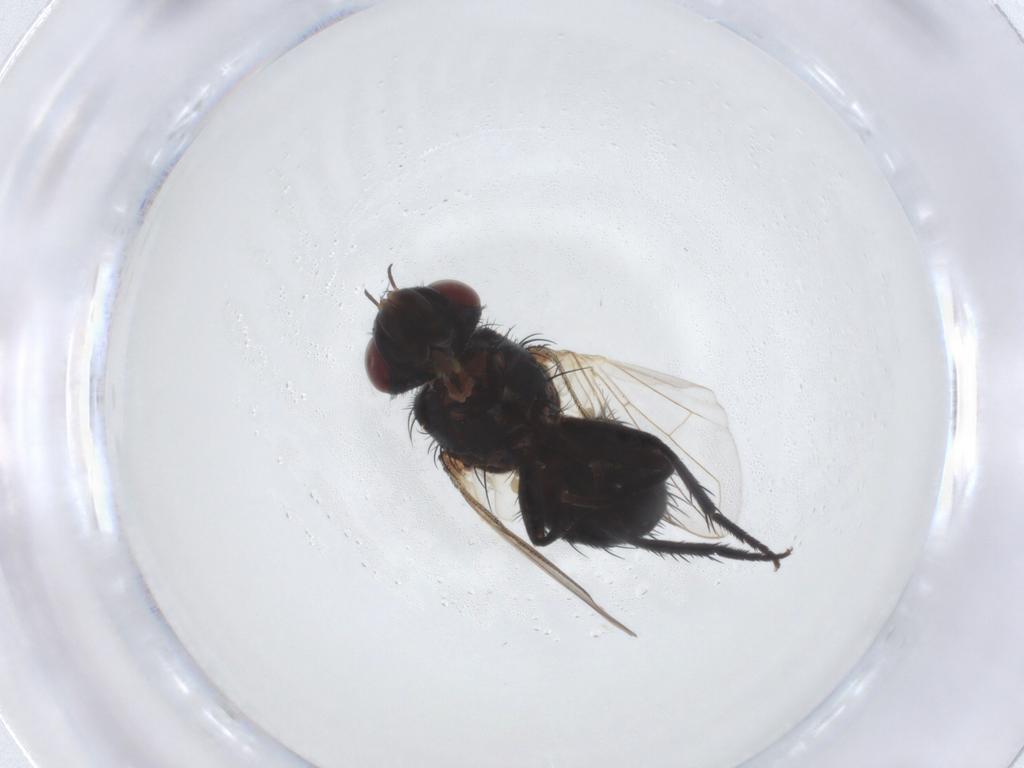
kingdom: Animalia
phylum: Arthropoda
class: Insecta
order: Diptera
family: Tachinidae
